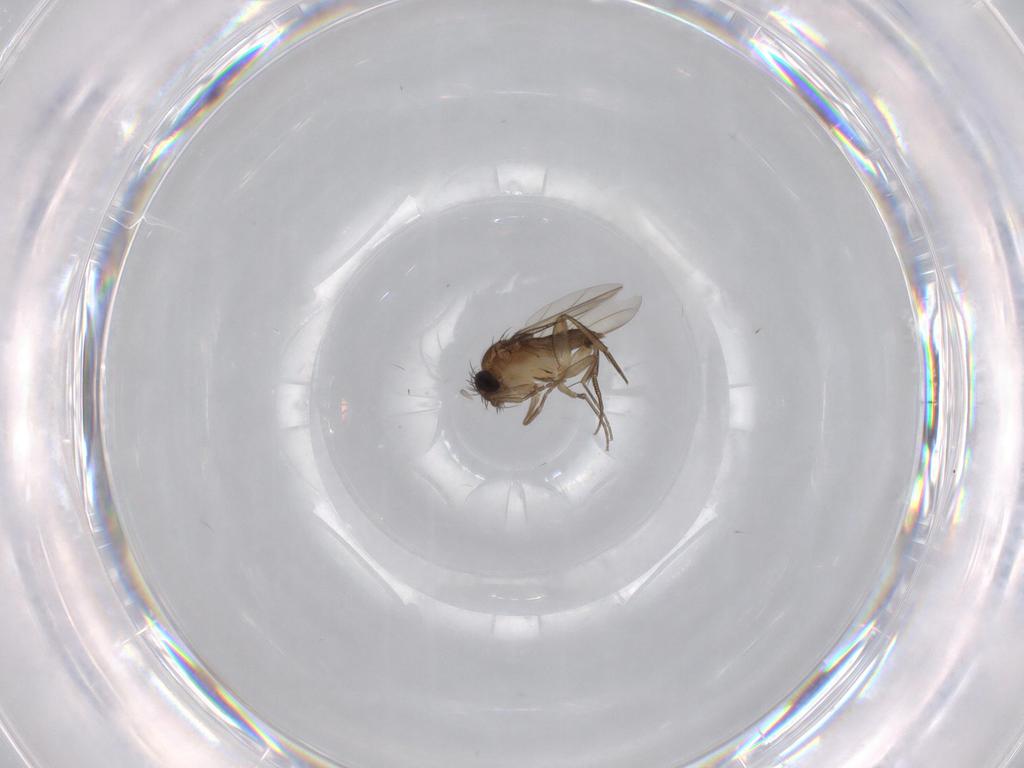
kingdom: Animalia
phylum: Arthropoda
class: Insecta
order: Diptera
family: Phoridae
